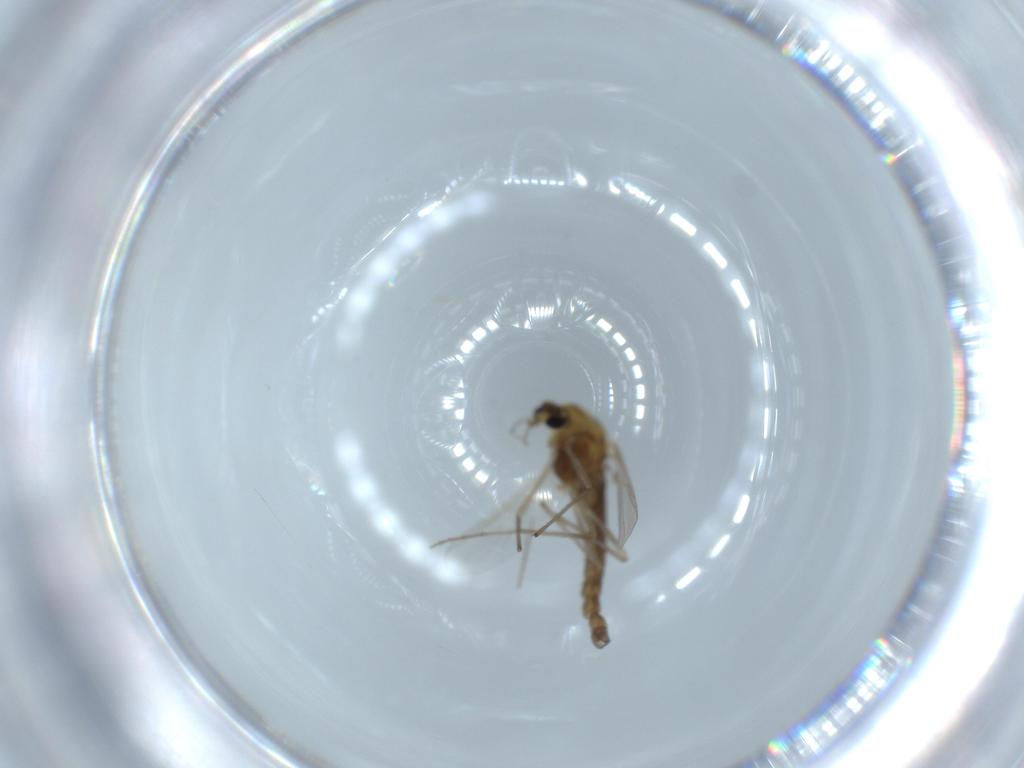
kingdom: Animalia
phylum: Arthropoda
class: Insecta
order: Diptera
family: Chironomidae
